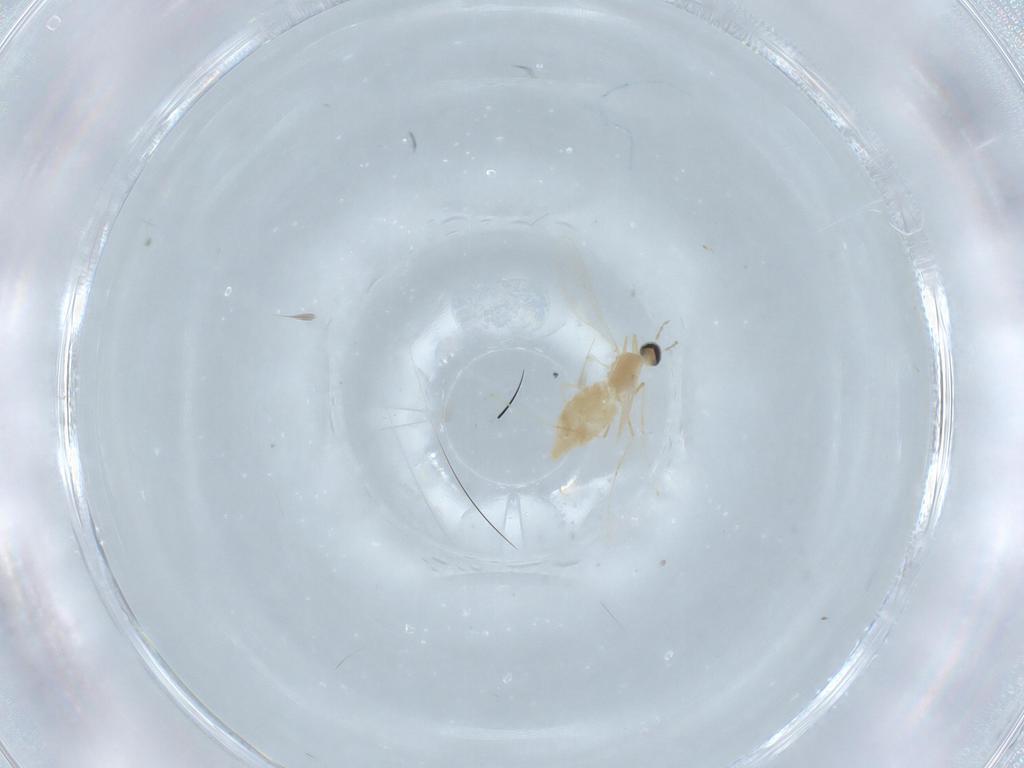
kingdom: Animalia
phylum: Arthropoda
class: Insecta
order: Diptera
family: Cecidomyiidae
